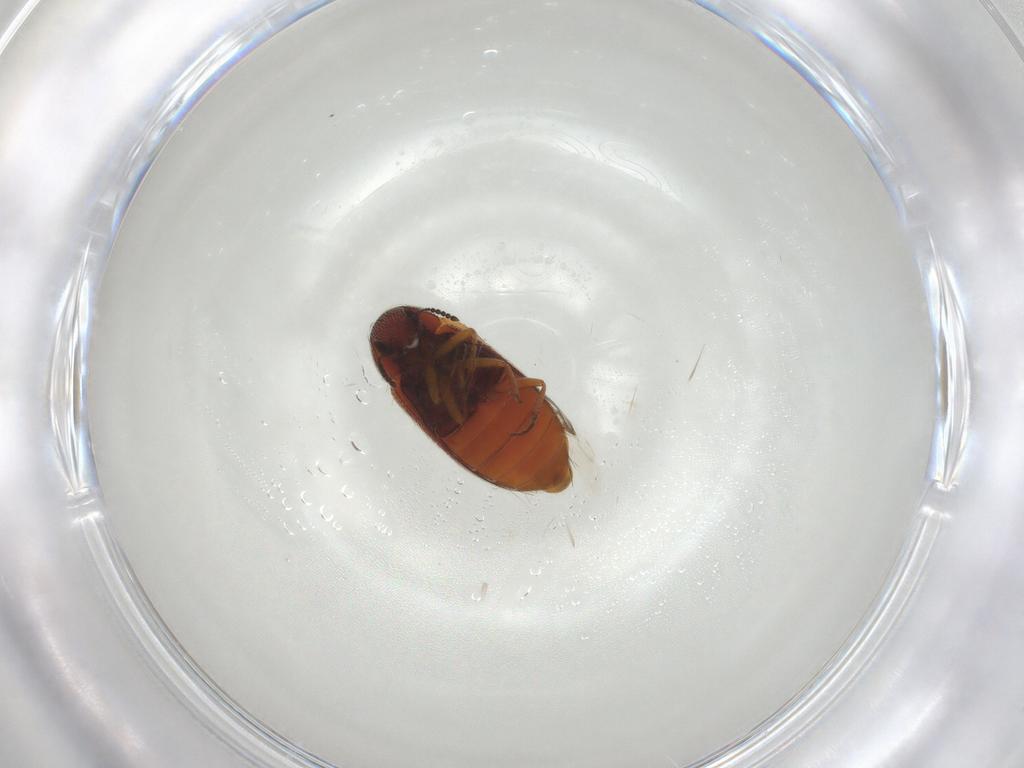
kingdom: Animalia
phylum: Arthropoda
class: Insecta
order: Coleoptera
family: Rhadalidae
